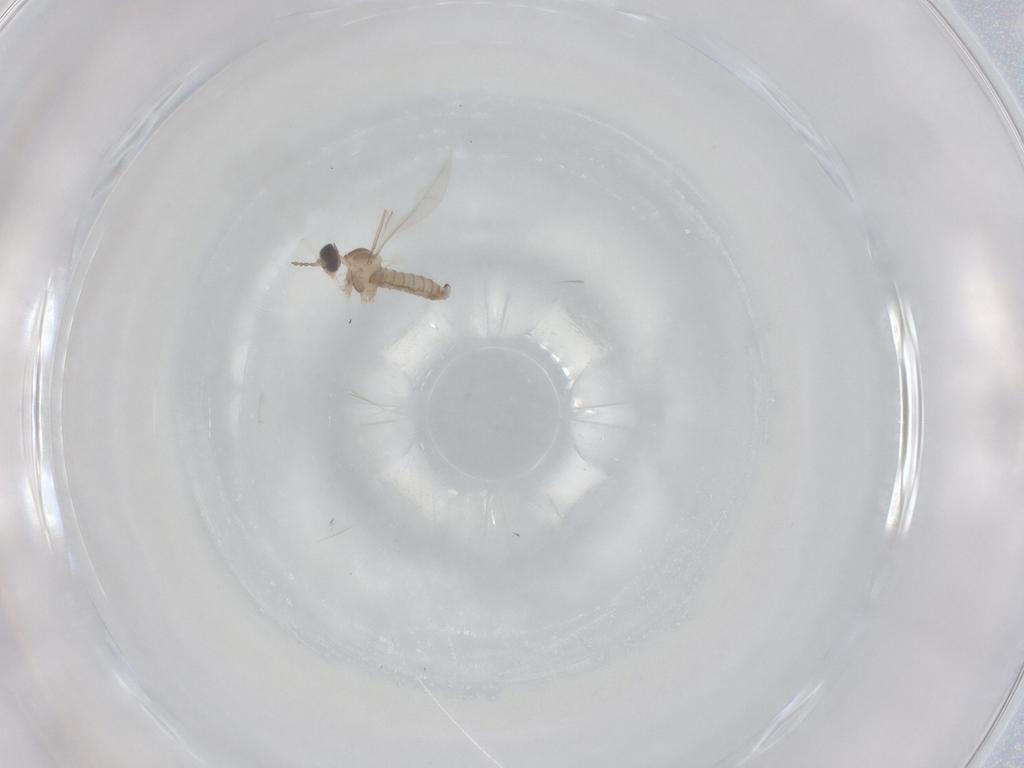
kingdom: Animalia
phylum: Arthropoda
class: Insecta
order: Diptera
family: Cecidomyiidae
